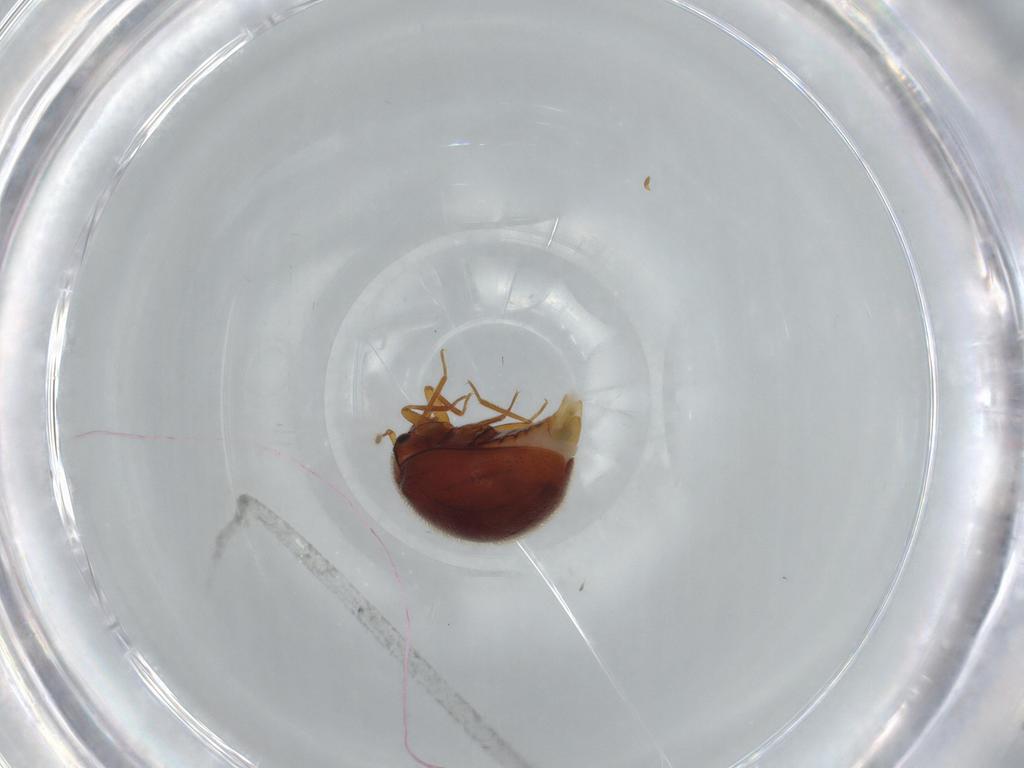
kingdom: Animalia
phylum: Arthropoda
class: Insecta
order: Coleoptera
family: Anamorphidae
